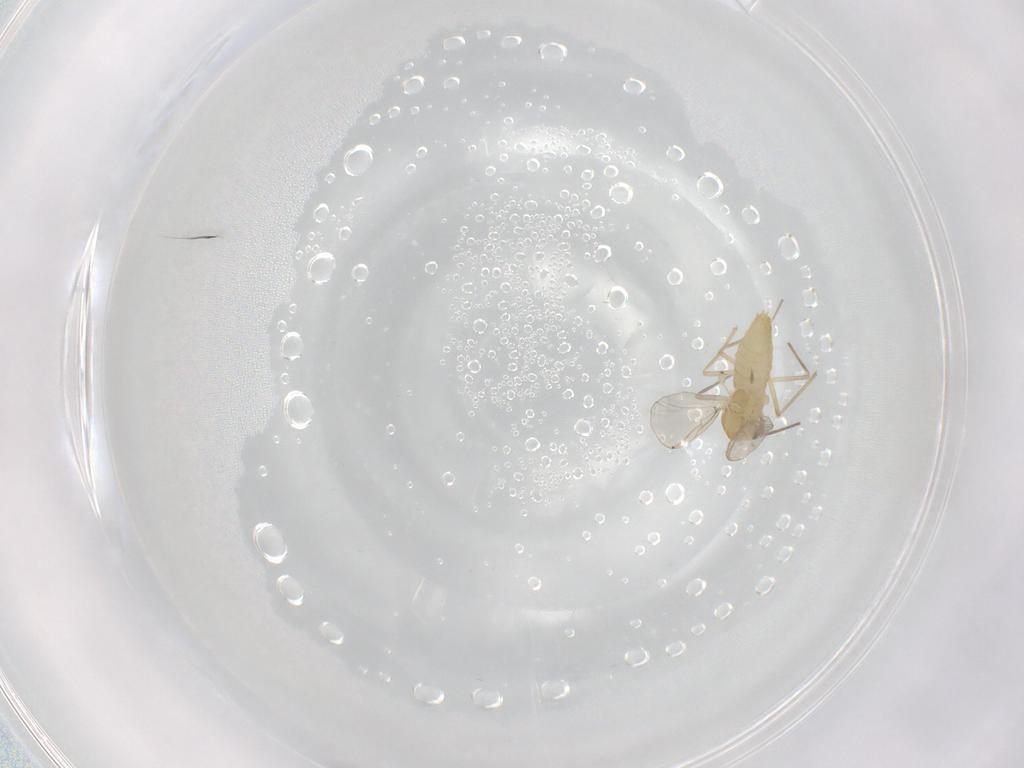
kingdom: Animalia
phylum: Arthropoda
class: Insecta
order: Diptera
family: Chironomidae
